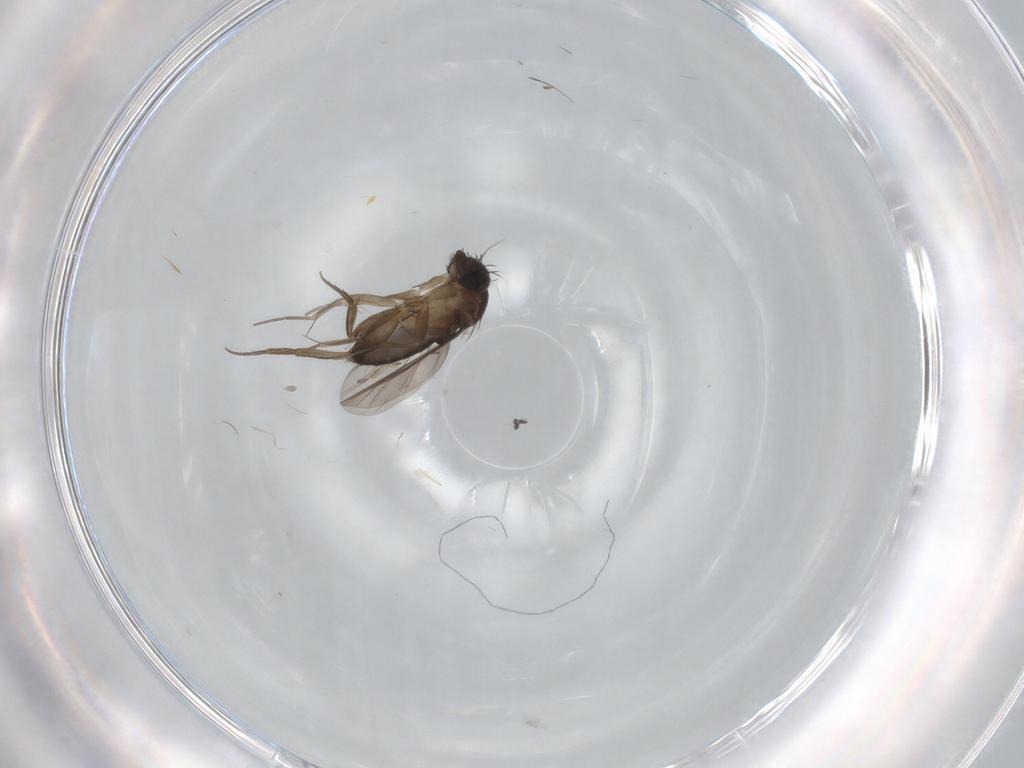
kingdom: Animalia
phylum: Arthropoda
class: Insecta
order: Diptera
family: Phoridae
